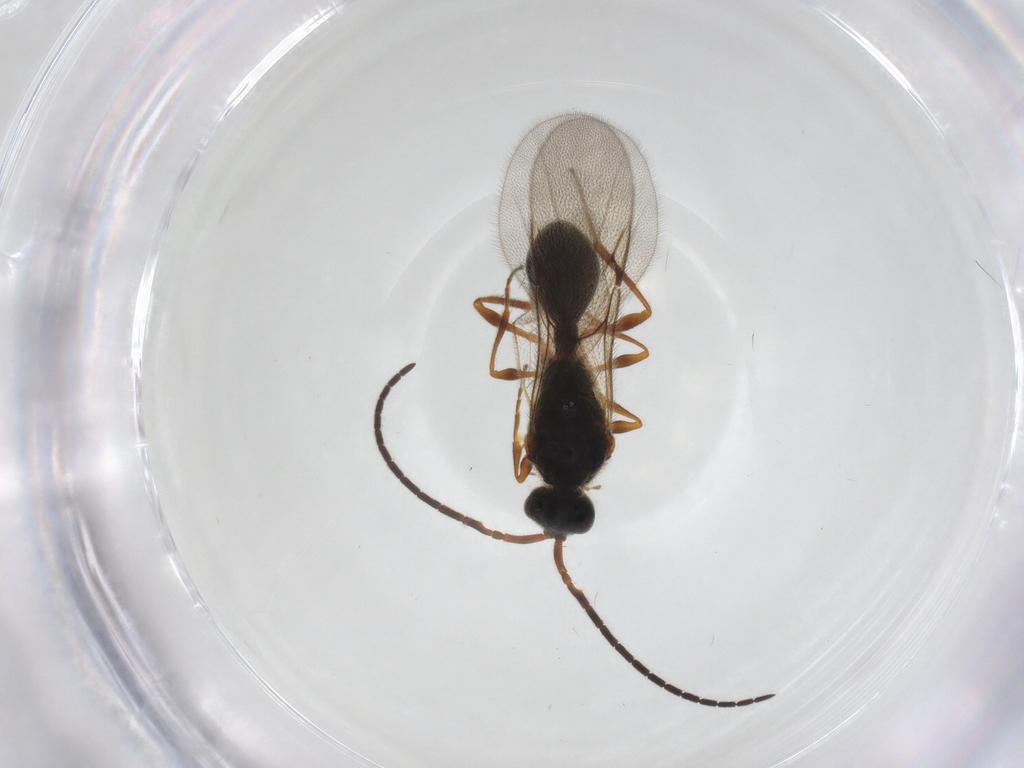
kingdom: Animalia
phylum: Arthropoda
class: Insecta
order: Hymenoptera
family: Diapriidae
